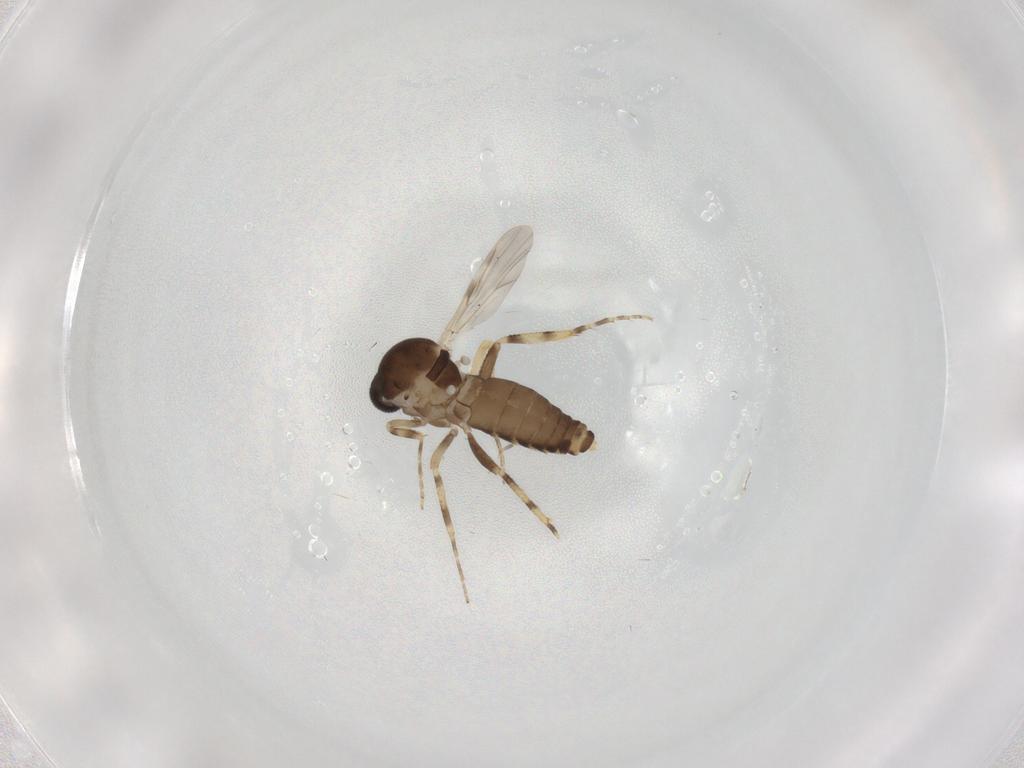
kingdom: Animalia
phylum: Arthropoda
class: Insecta
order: Diptera
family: Ceratopogonidae
